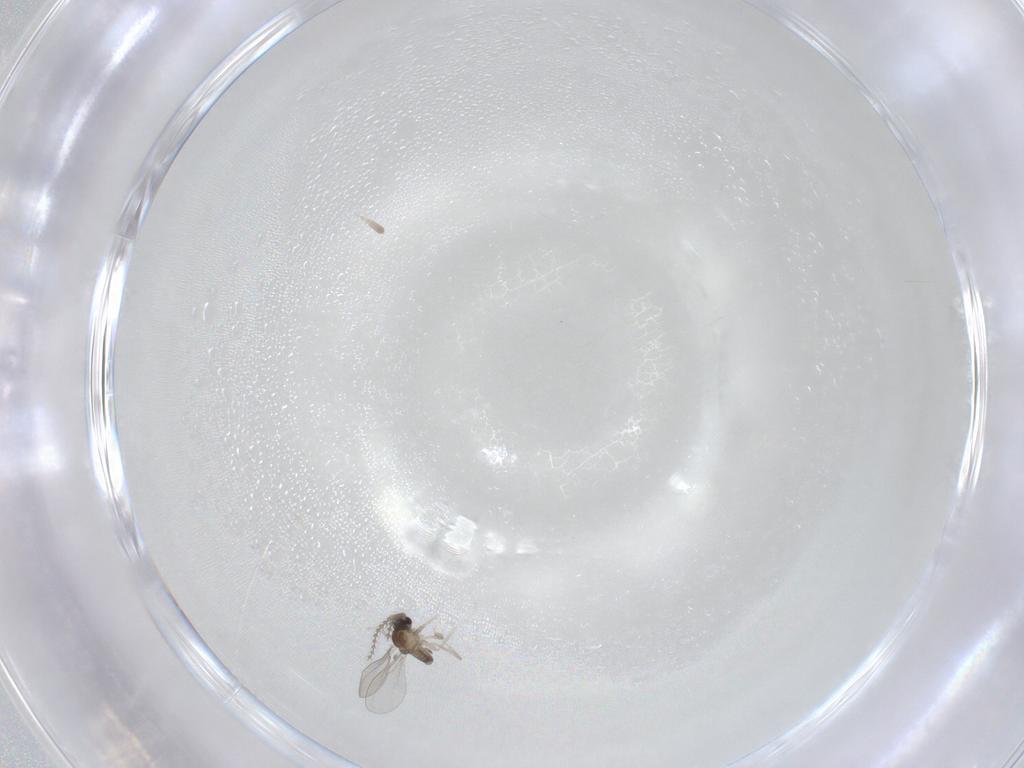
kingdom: Animalia
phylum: Arthropoda
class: Insecta
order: Diptera
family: Cecidomyiidae
